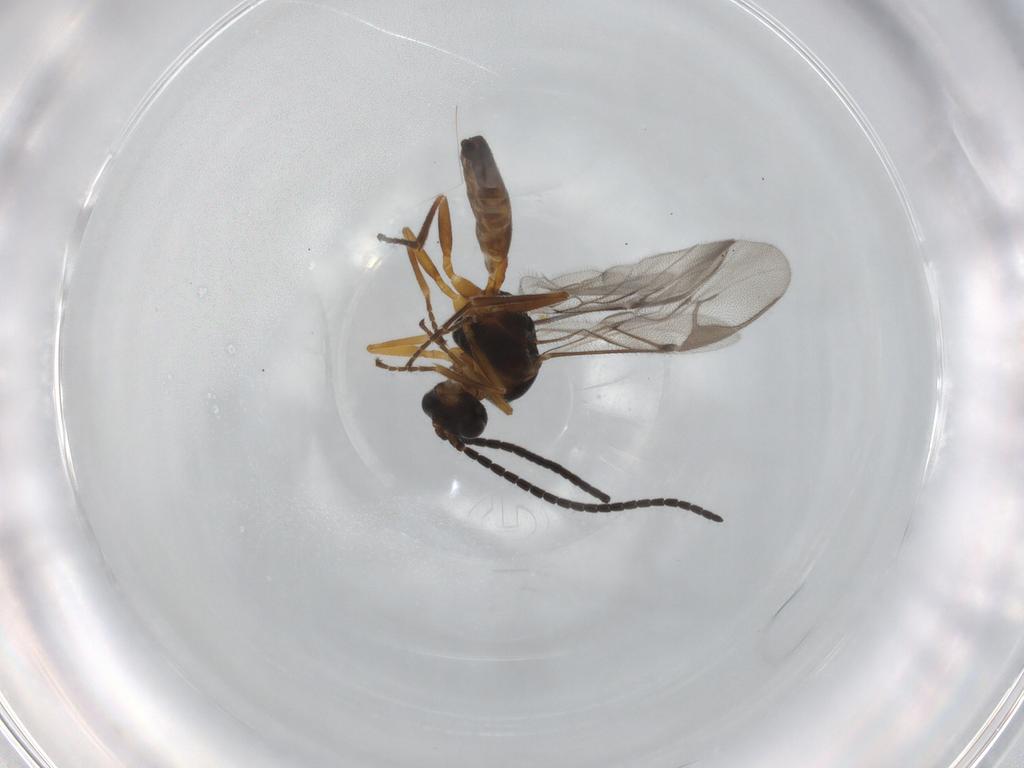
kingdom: Animalia
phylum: Arthropoda
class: Insecta
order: Hymenoptera
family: Braconidae
